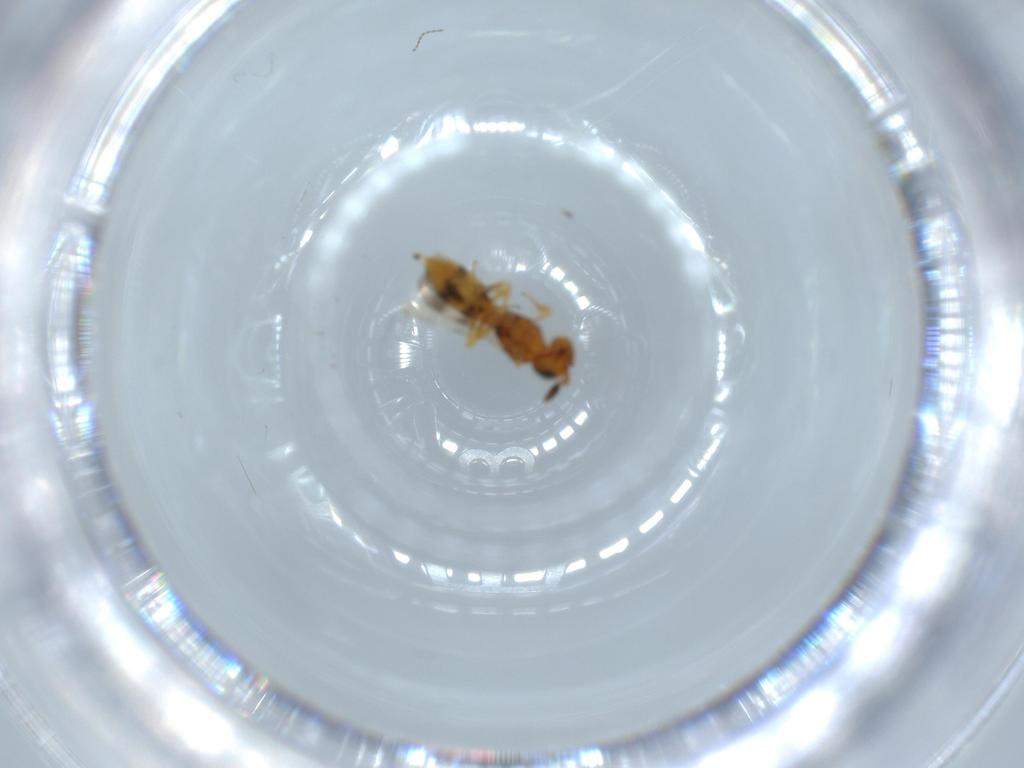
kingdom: Animalia
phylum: Arthropoda
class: Insecta
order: Hymenoptera
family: Scelionidae
